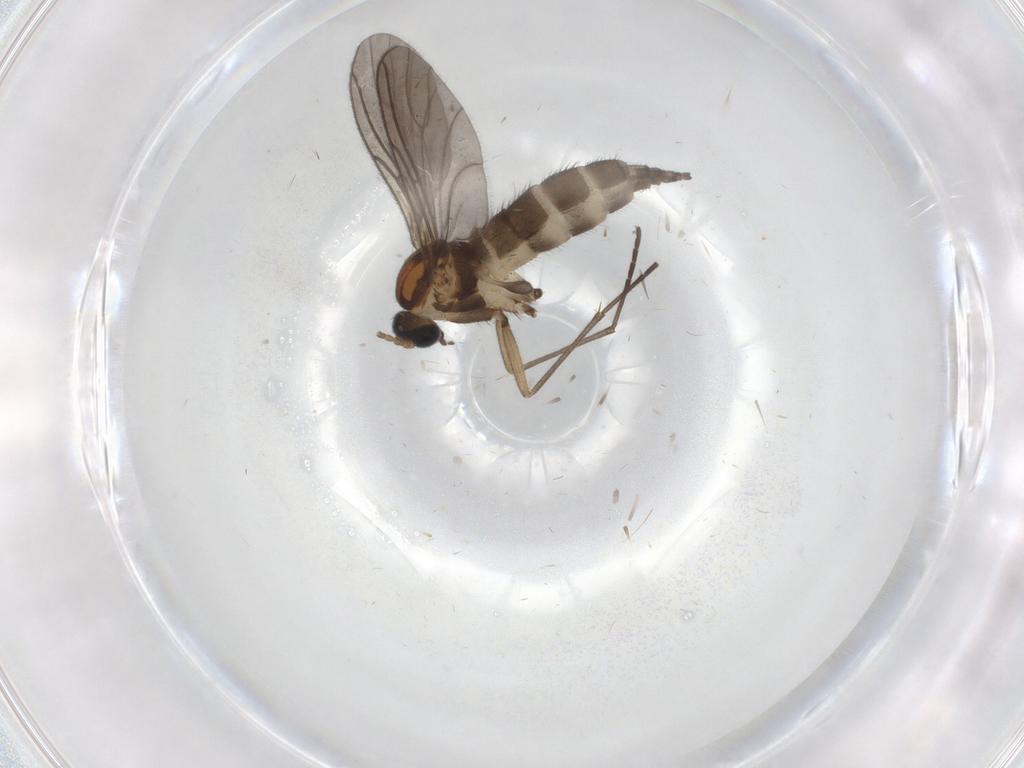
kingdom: Animalia
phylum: Arthropoda
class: Insecta
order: Diptera
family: Sciaridae
